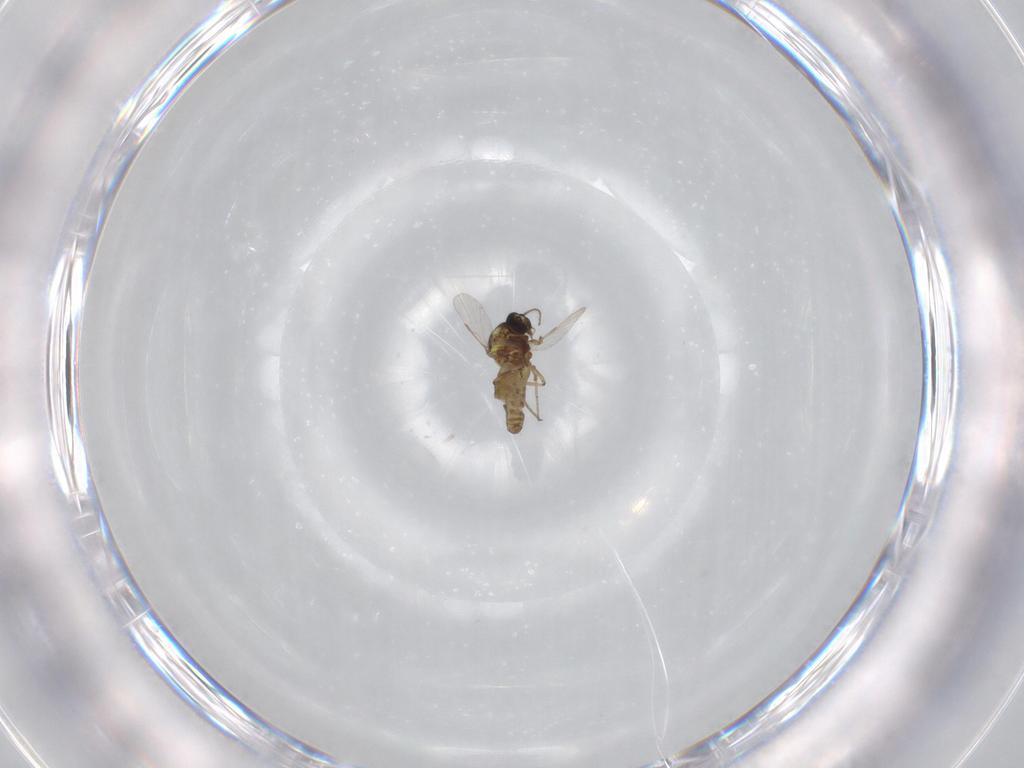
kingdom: Animalia
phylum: Arthropoda
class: Insecta
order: Diptera
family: Ceratopogonidae
